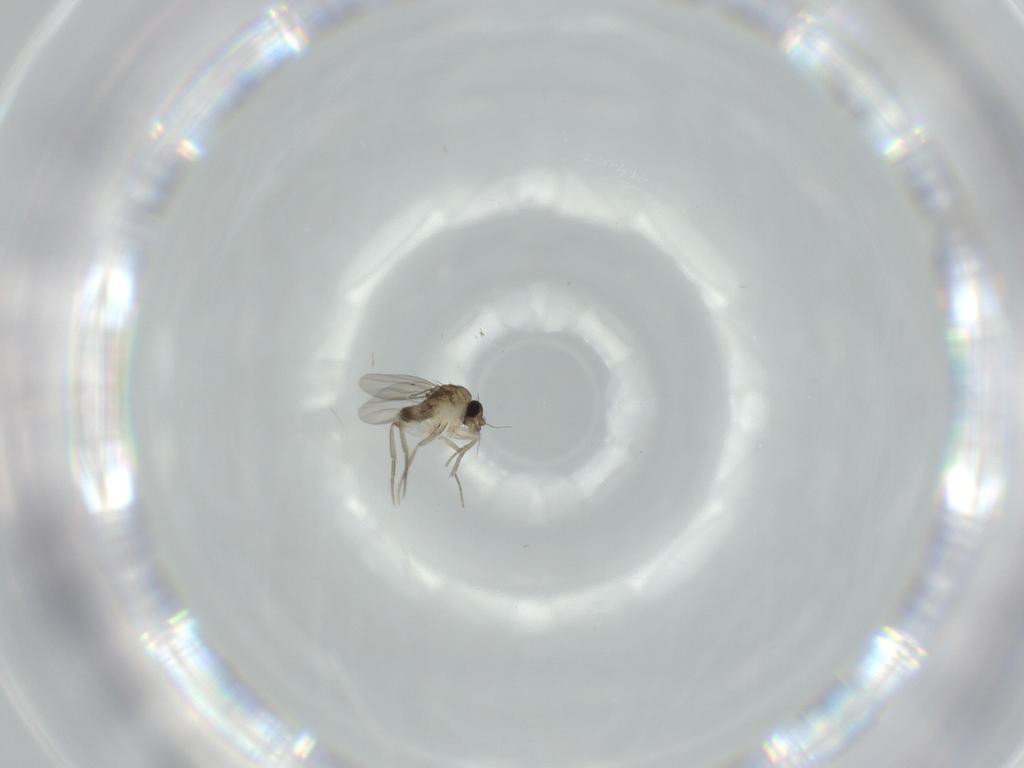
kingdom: Animalia
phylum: Arthropoda
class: Insecta
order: Diptera
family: Phoridae
